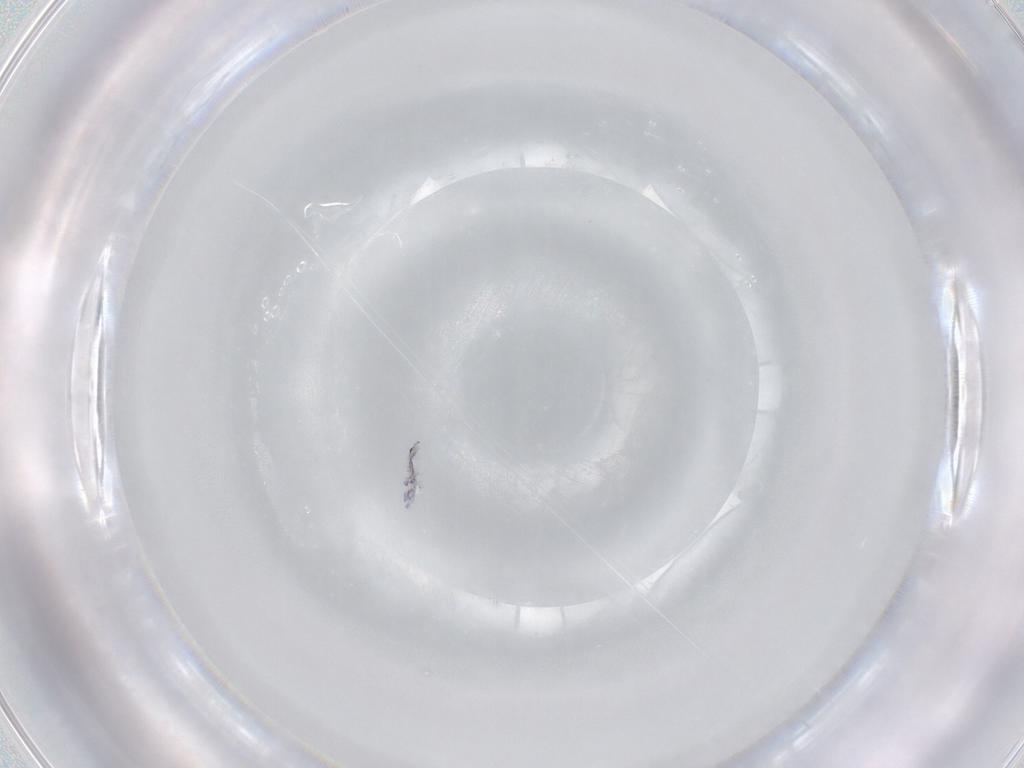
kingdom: Animalia
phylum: Arthropoda
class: Collembola
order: Entomobryomorpha
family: Entomobryidae
